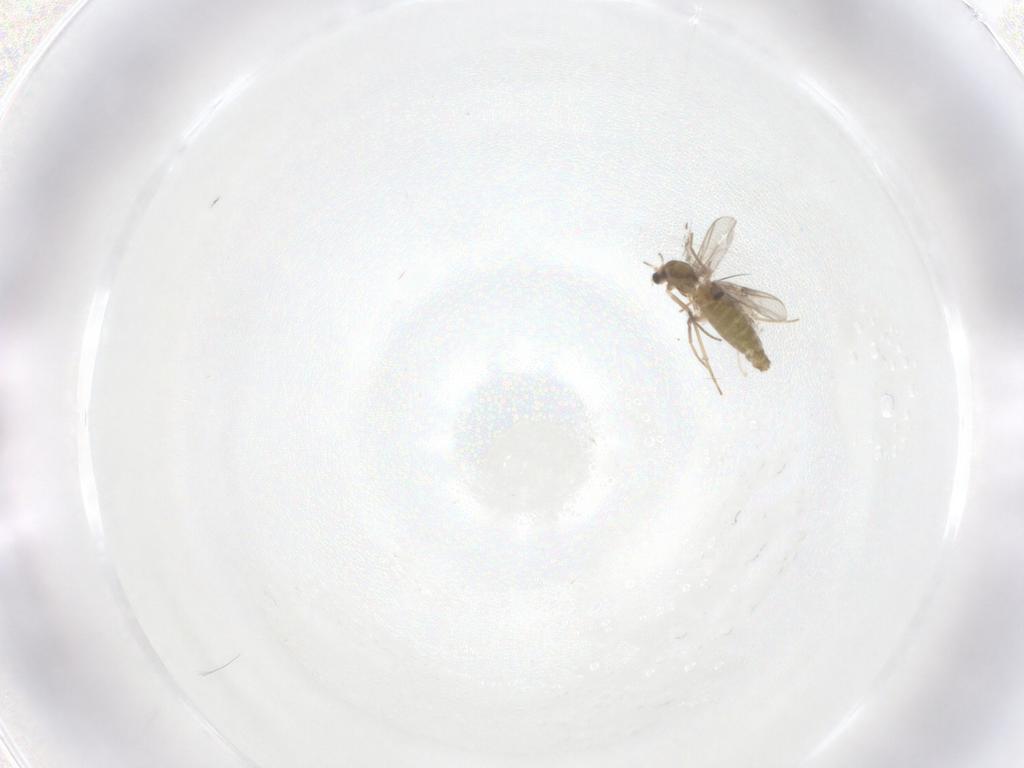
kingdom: Animalia
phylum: Arthropoda
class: Insecta
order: Diptera
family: Chironomidae
